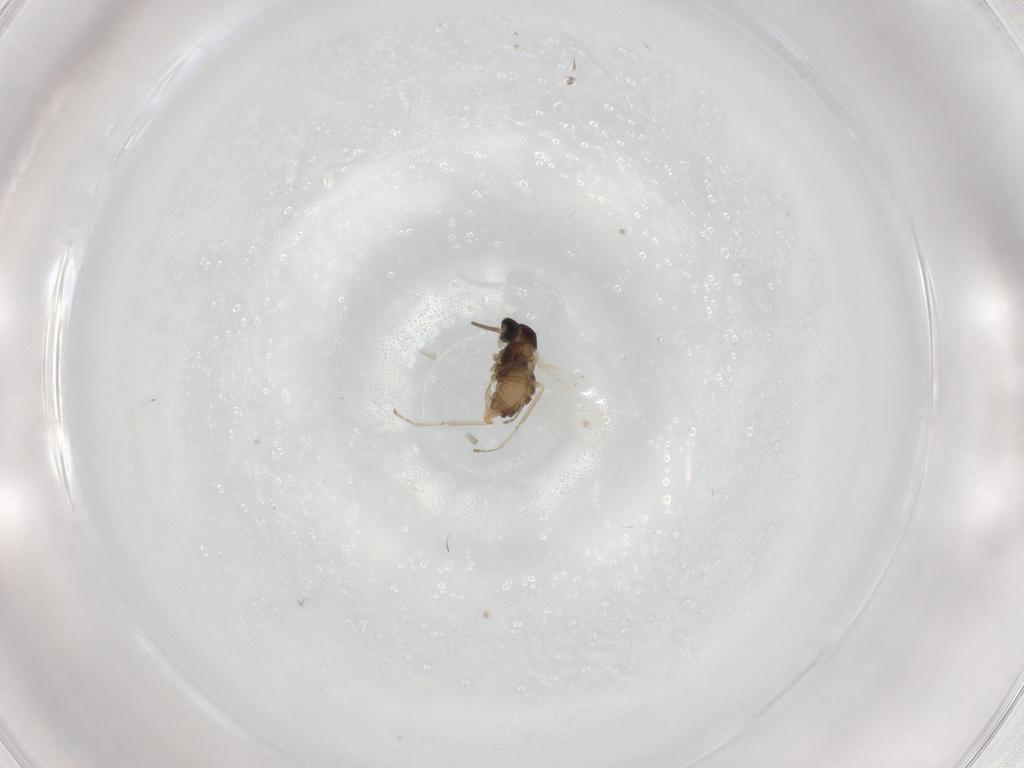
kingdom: Animalia
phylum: Arthropoda
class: Insecta
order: Diptera
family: Cecidomyiidae
